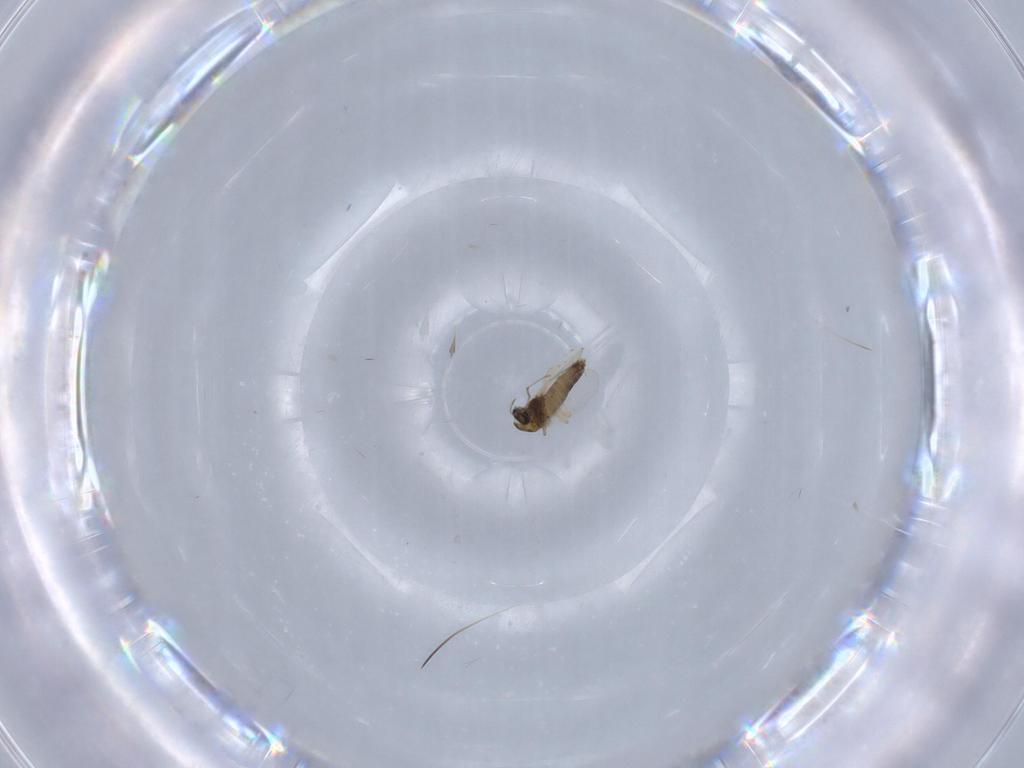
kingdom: Animalia
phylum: Arthropoda
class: Insecta
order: Diptera
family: Chironomidae
